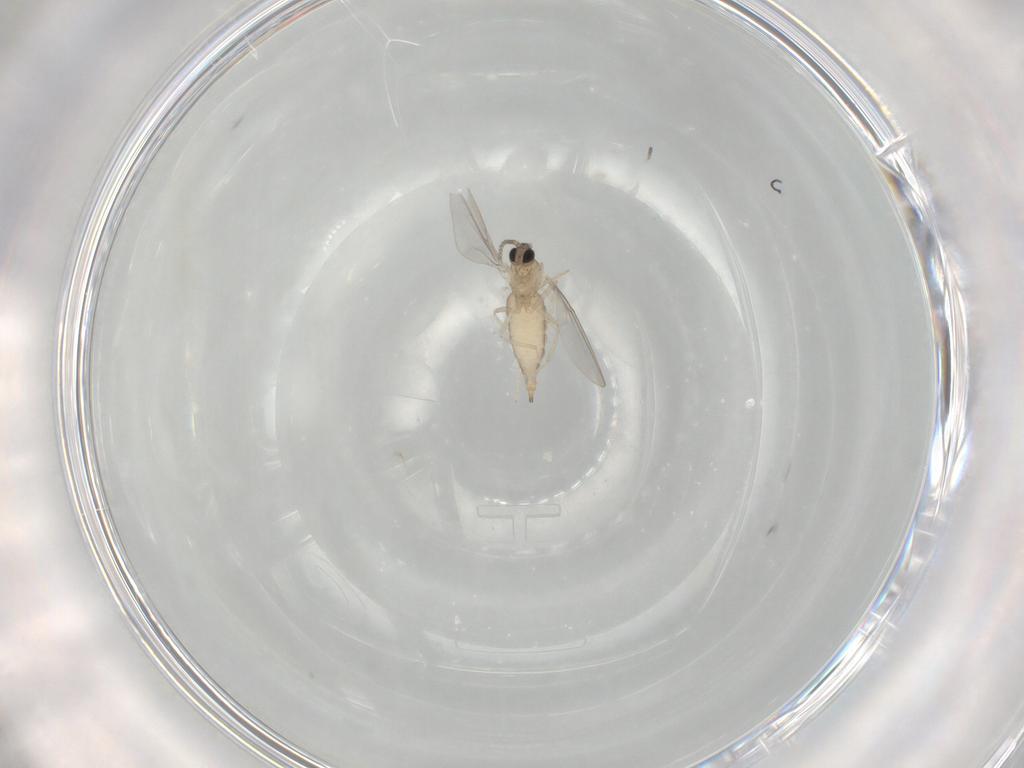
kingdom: Animalia
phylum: Arthropoda
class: Insecta
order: Diptera
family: Cecidomyiidae
